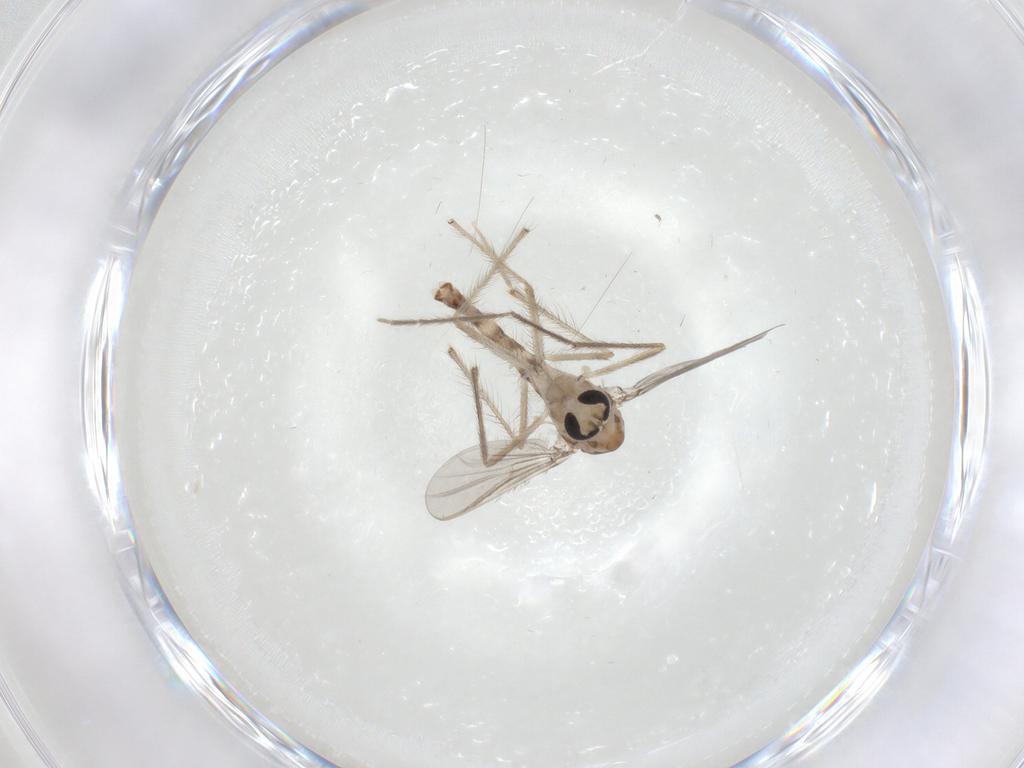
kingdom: Animalia
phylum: Arthropoda
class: Insecta
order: Diptera
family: Chironomidae
